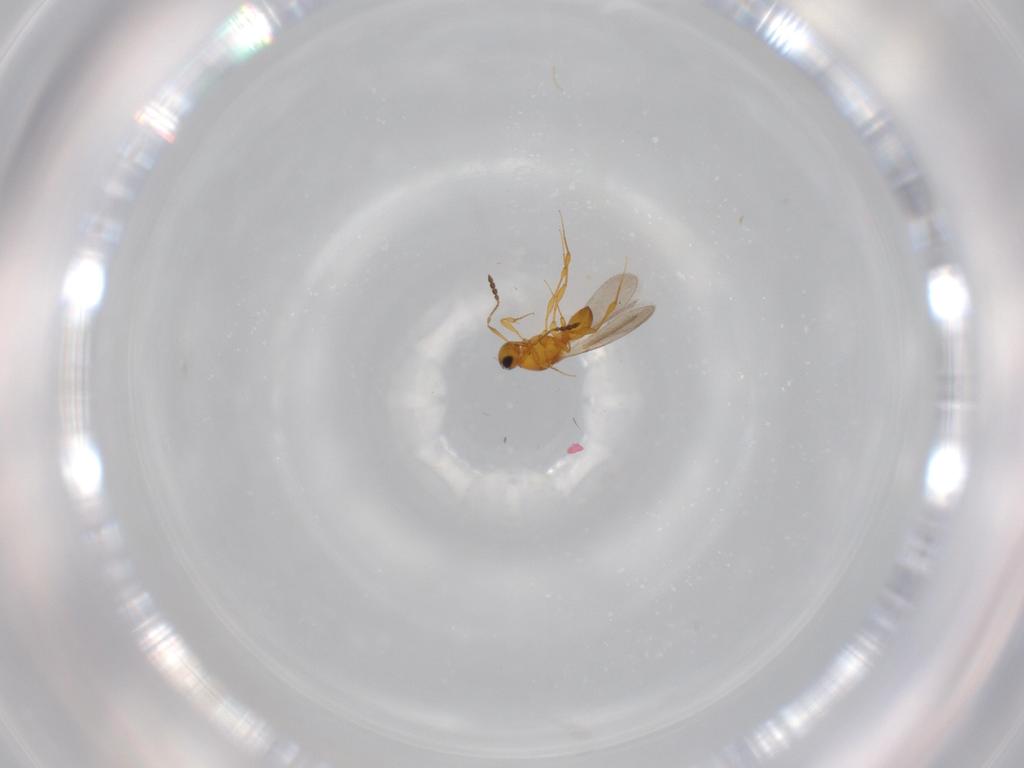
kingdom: Animalia
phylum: Arthropoda
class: Insecta
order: Hymenoptera
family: Platygastridae
